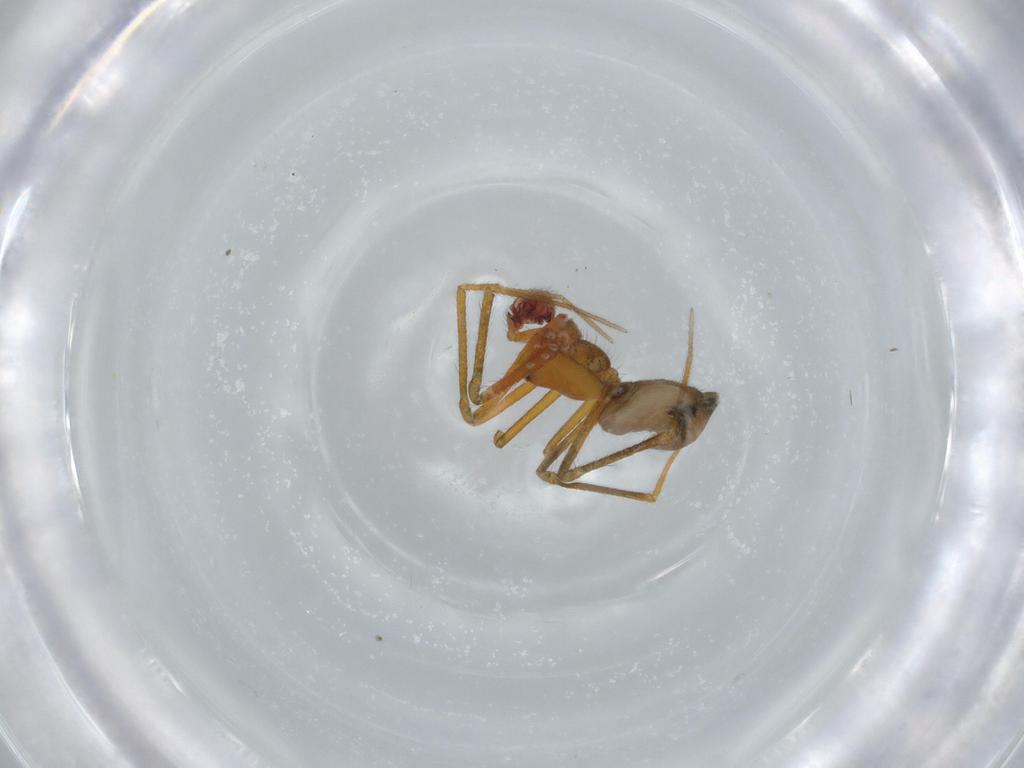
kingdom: Animalia
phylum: Arthropoda
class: Arachnida
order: Araneae
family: Linyphiidae
